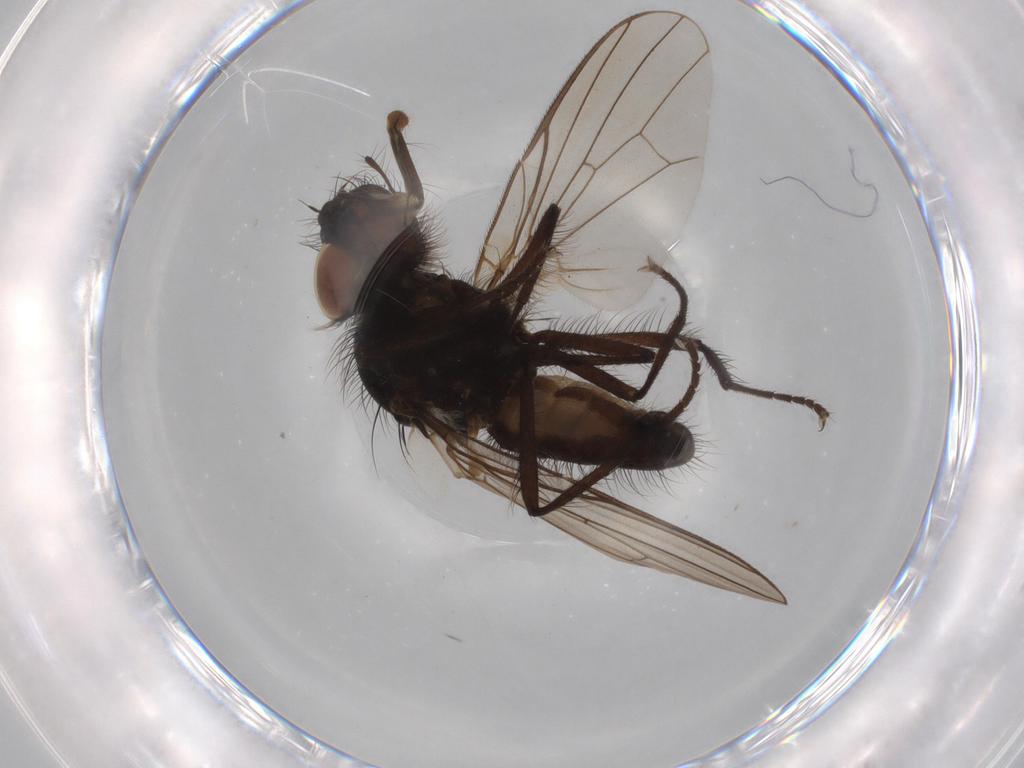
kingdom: Animalia
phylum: Arthropoda
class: Insecta
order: Diptera
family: Anthomyiidae
